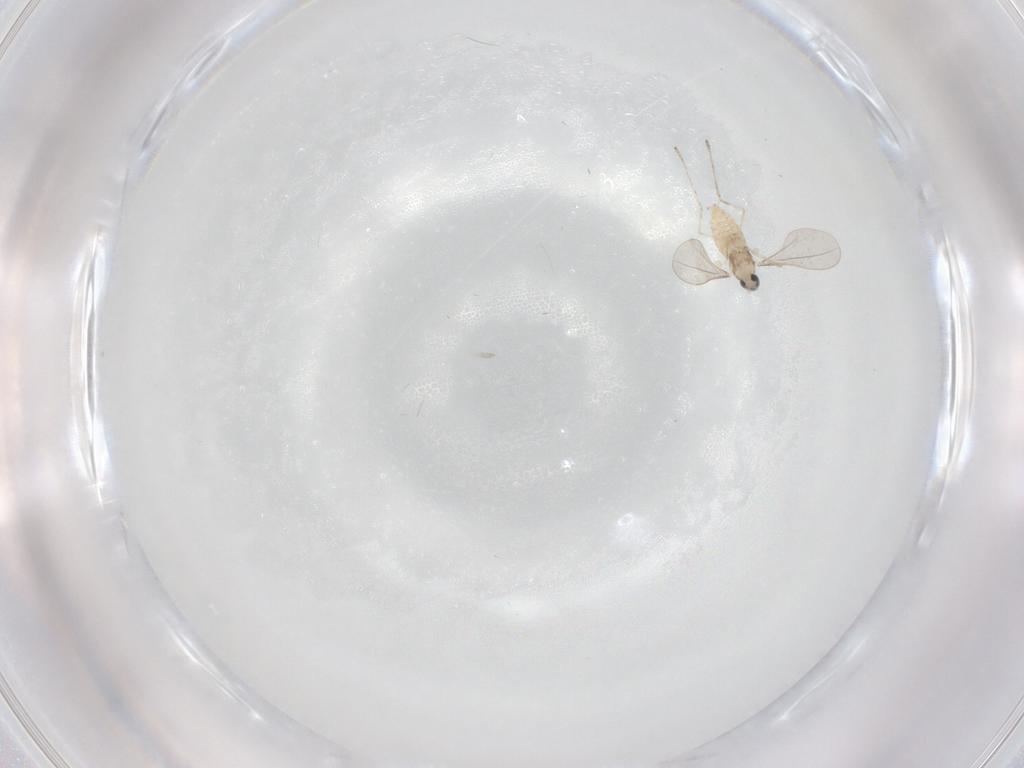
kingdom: Animalia
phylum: Arthropoda
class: Insecta
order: Diptera
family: Cecidomyiidae
